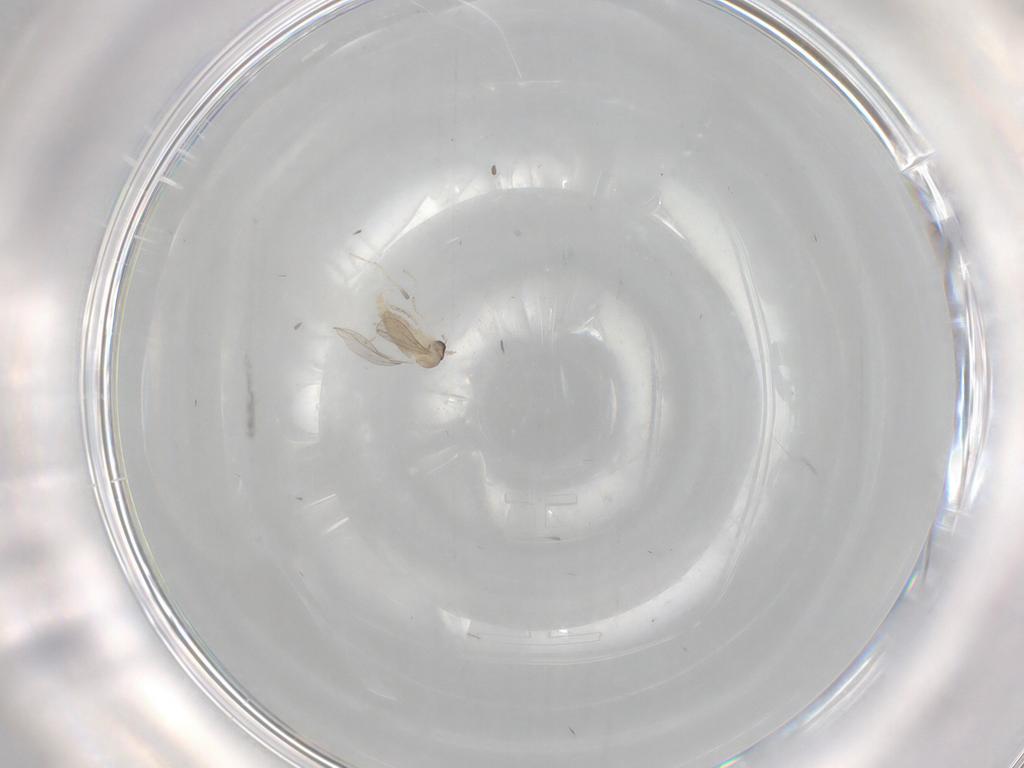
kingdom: Animalia
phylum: Arthropoda
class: Insecta
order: Diptera
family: Cecidomyiidae
